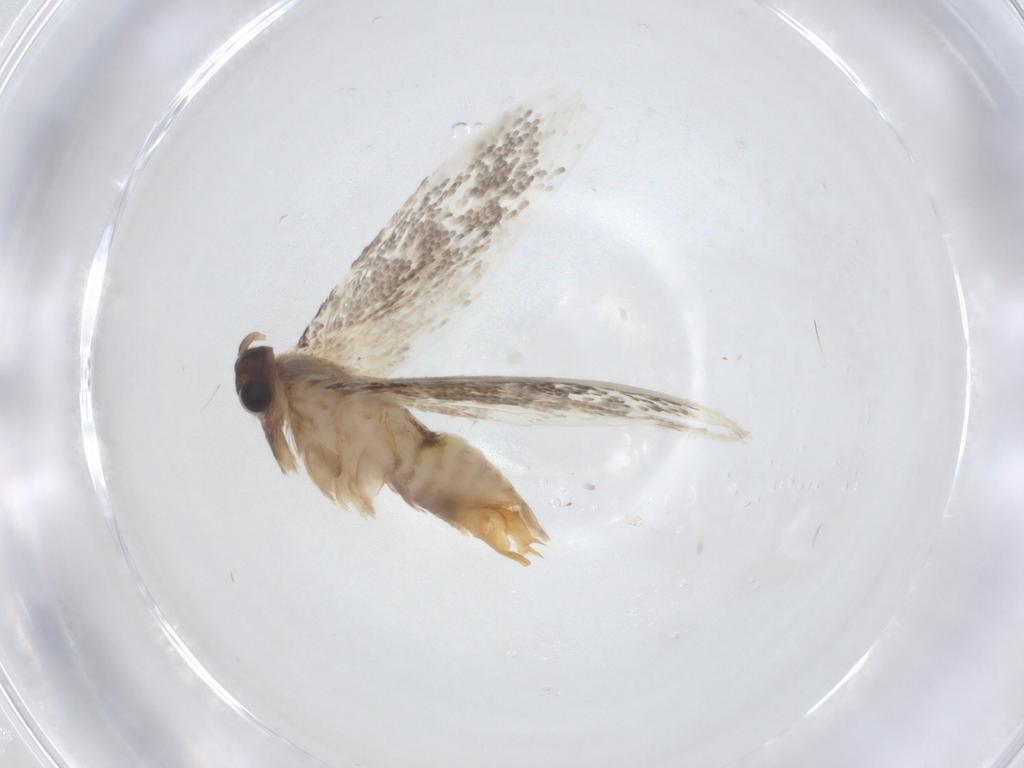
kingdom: Animalia
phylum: Arthropoda
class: Insecta
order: Lepidoptera
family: Tineidae
